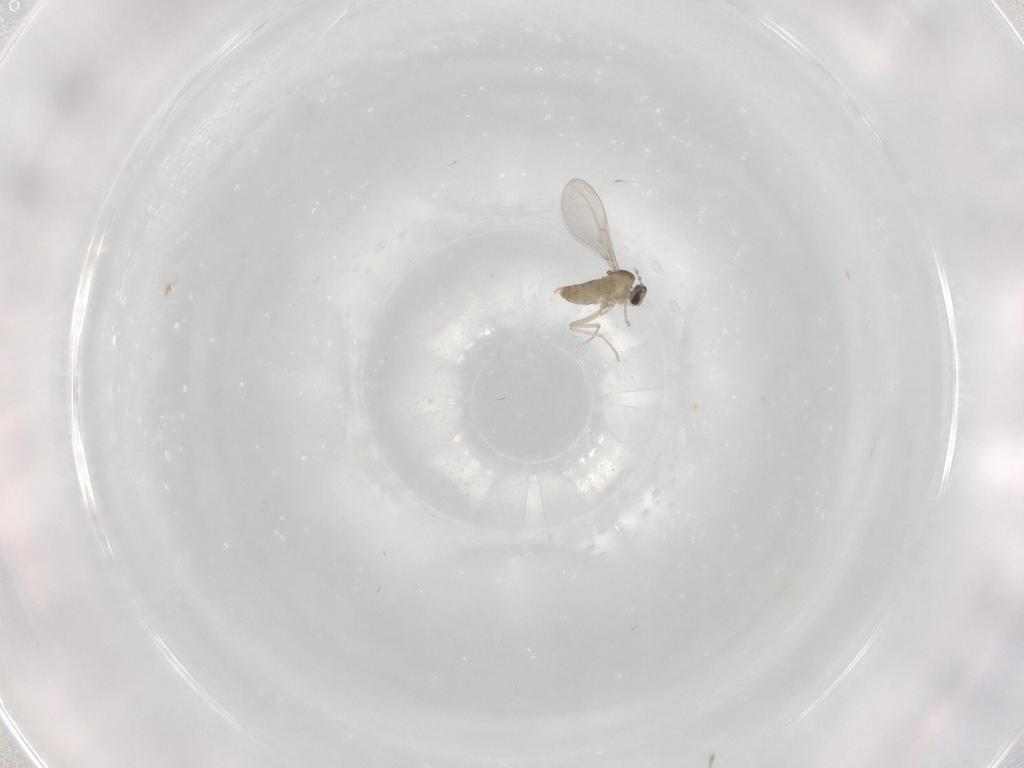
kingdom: Animalia
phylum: Arthropoda
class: Insecta
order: Diptera
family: Cecidomyiidae
